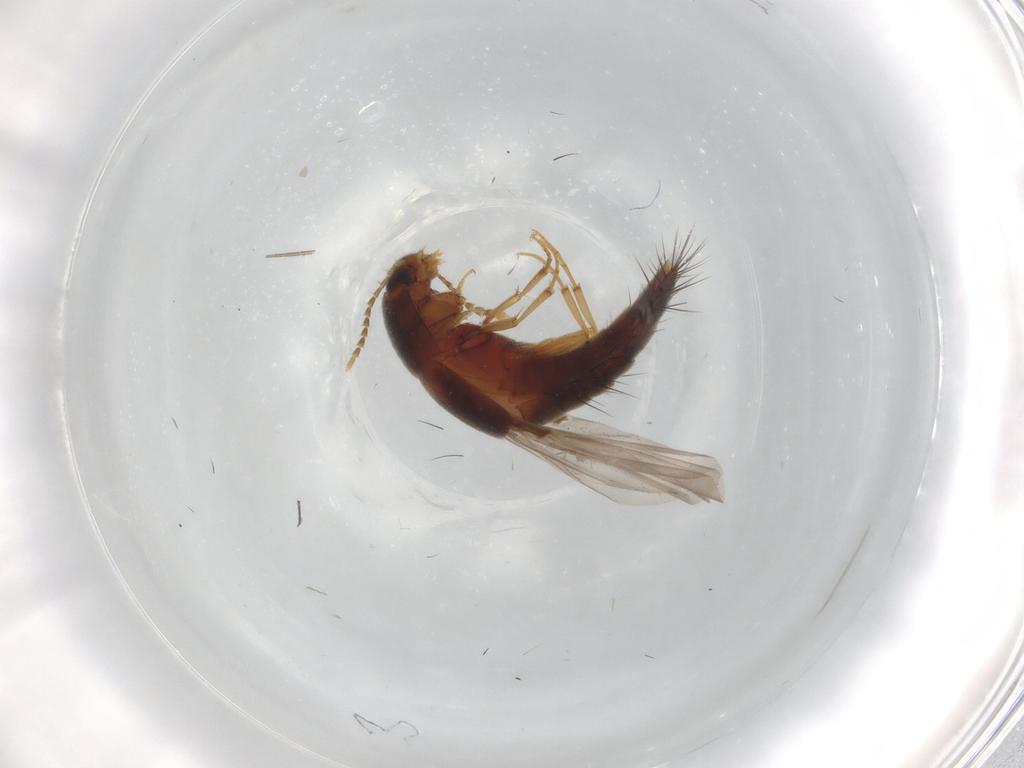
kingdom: Animalia
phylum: Arthropoda
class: Insecta
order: Coleoptera
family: Staphylinidae
